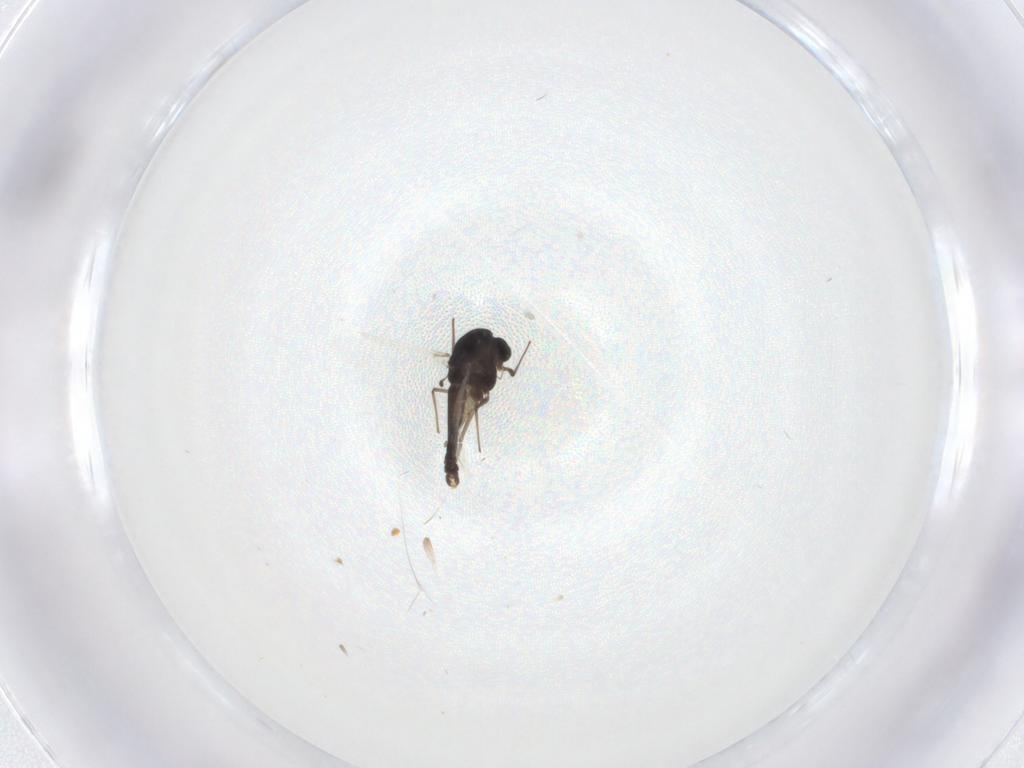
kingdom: Animalia
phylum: Arthropoda
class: Insecta
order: Diptera
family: Chironomidae
